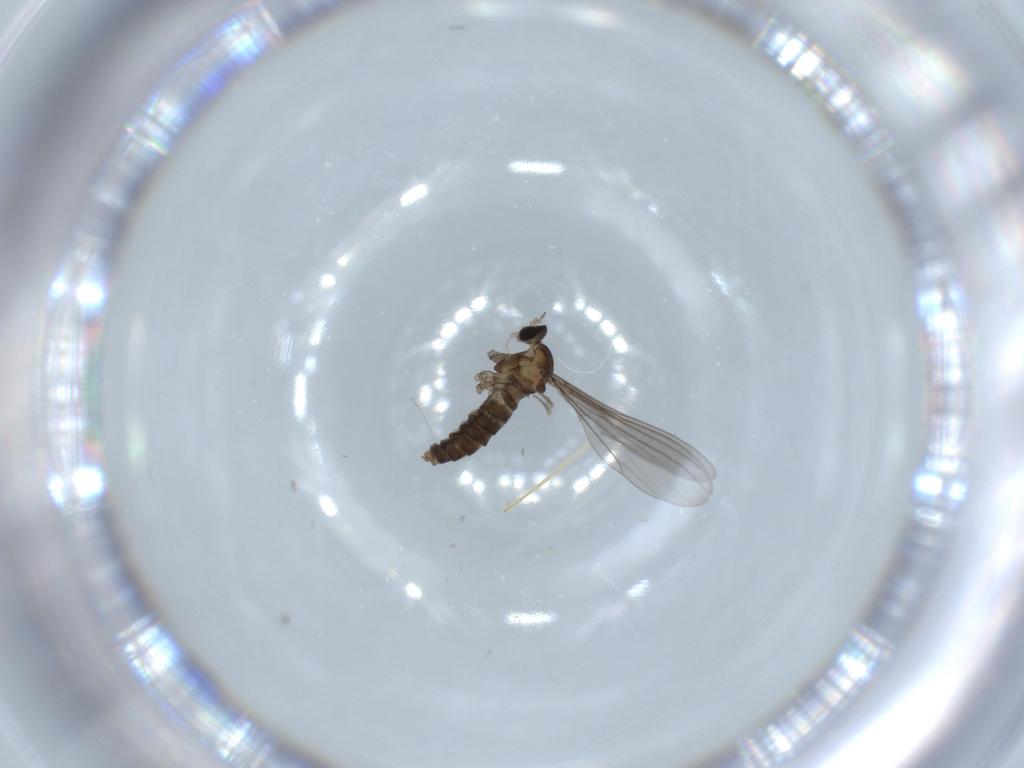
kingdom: Animalia
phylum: Arthropoda
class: Insecta
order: Diptera
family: Cecidomyiidae
